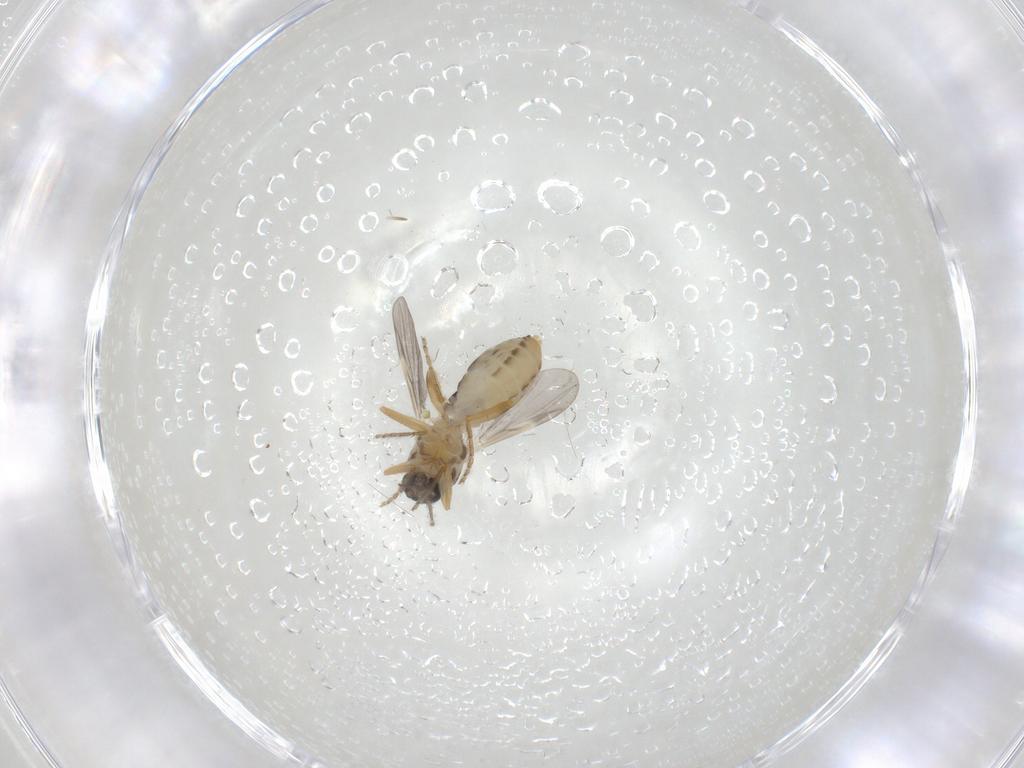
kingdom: Animalia
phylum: Arthropoda
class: Insecta
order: Diptera
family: Ceratopogonidae
